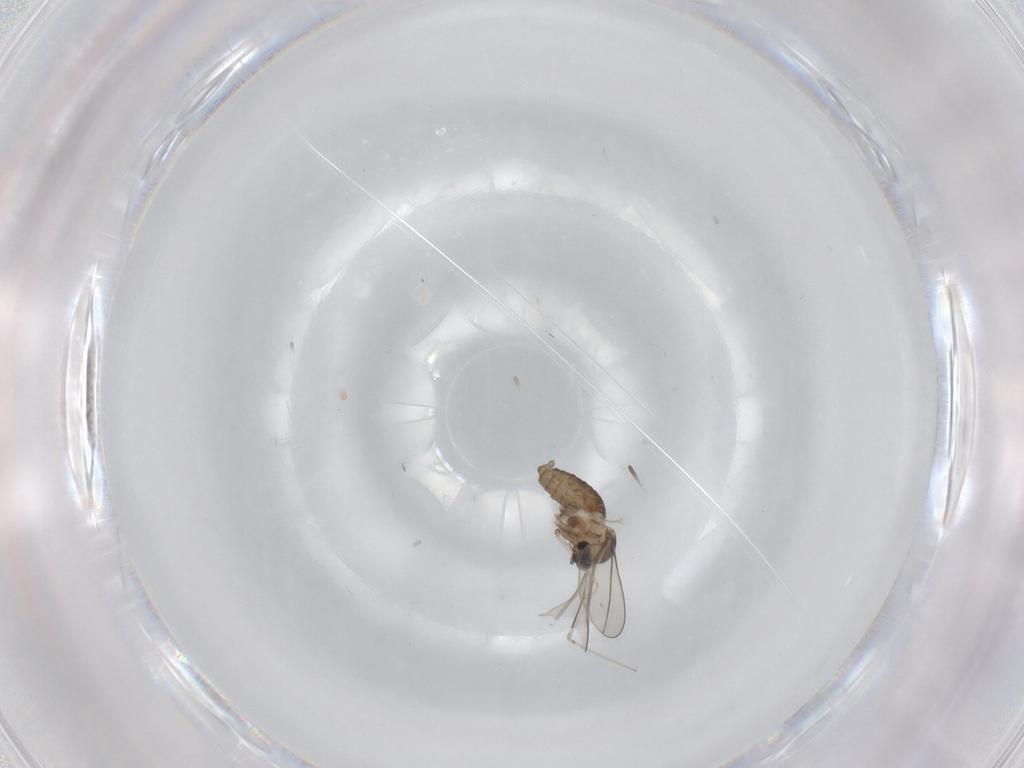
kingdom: Animalia
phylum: Arthropoda
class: Insecta
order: Diptera
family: Cecidomyiidae
